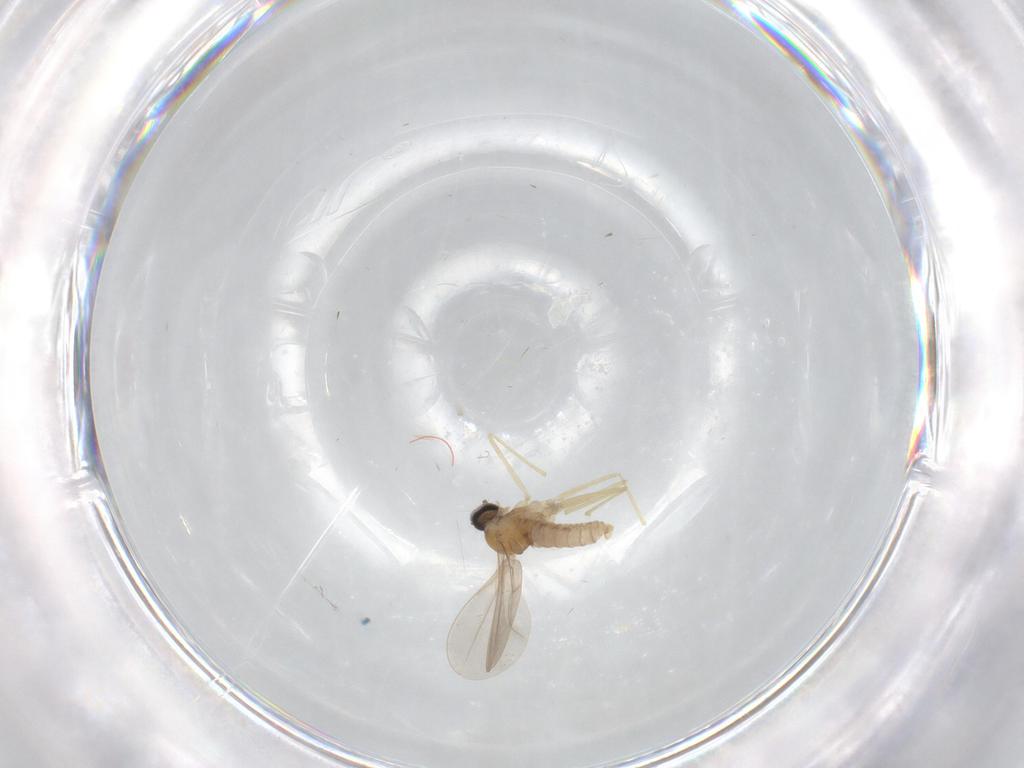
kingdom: Animalia
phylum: Arthropoda
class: Insecta
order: Diptera
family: Cecidomyiidae
